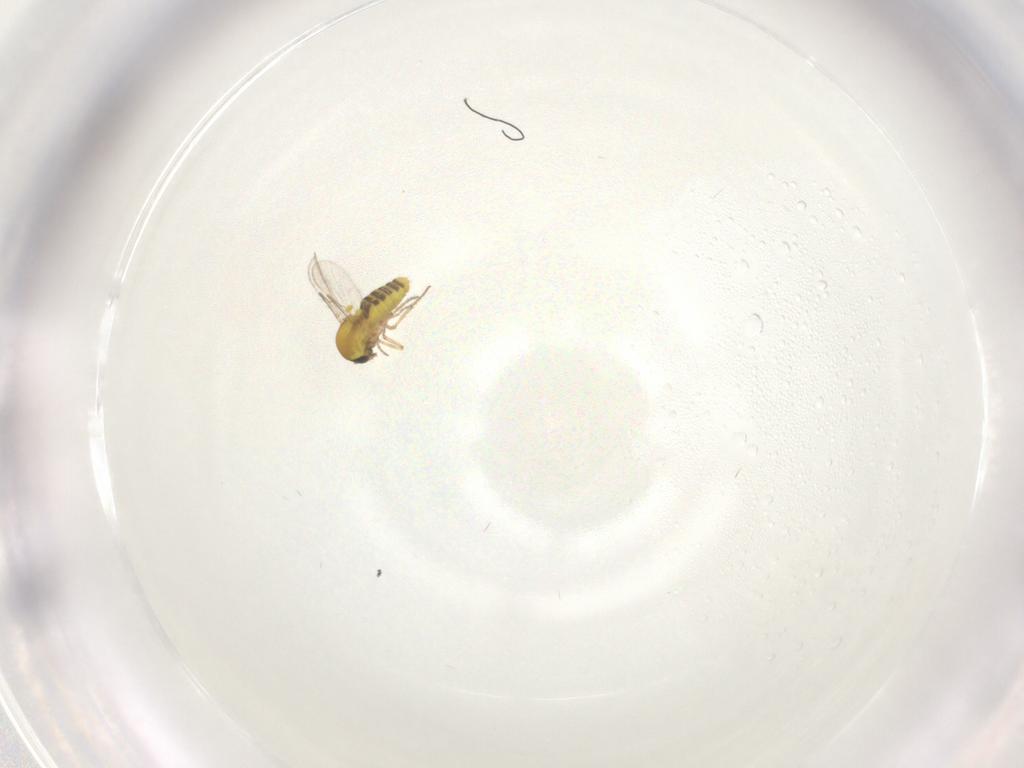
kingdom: Animalia
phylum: Arthropoda
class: Insecta
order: Diptera
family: Ceratopogonidae
